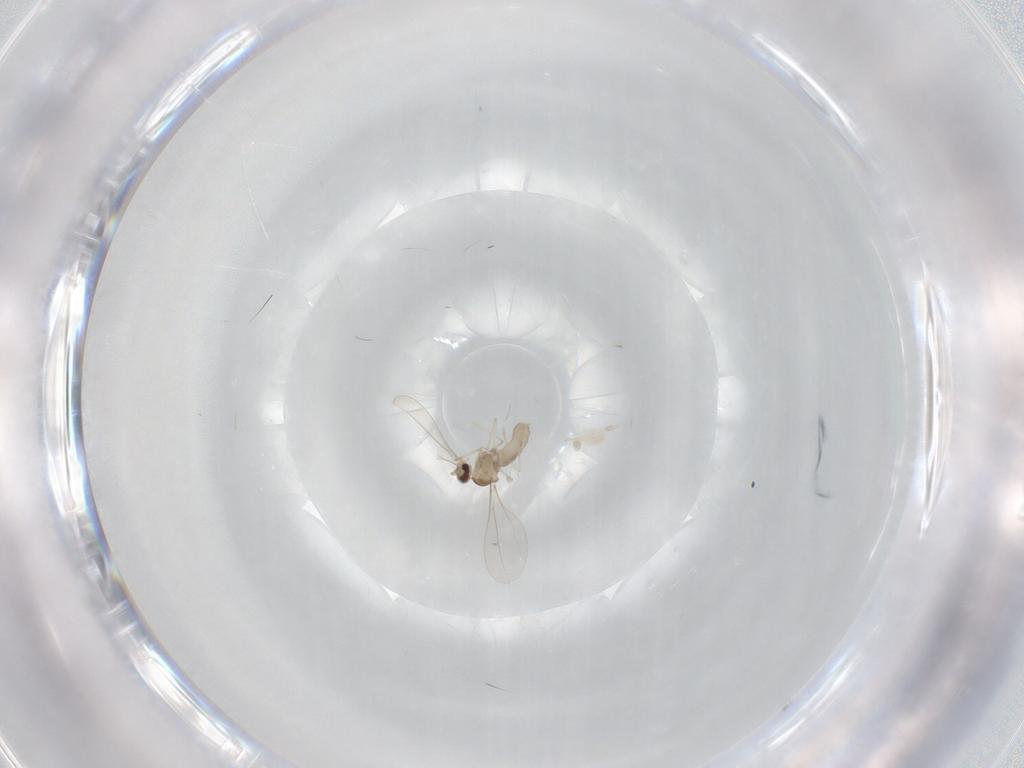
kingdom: Animalia
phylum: Arthropoda
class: Insecta
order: Diptera
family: Cecidomyiidae
